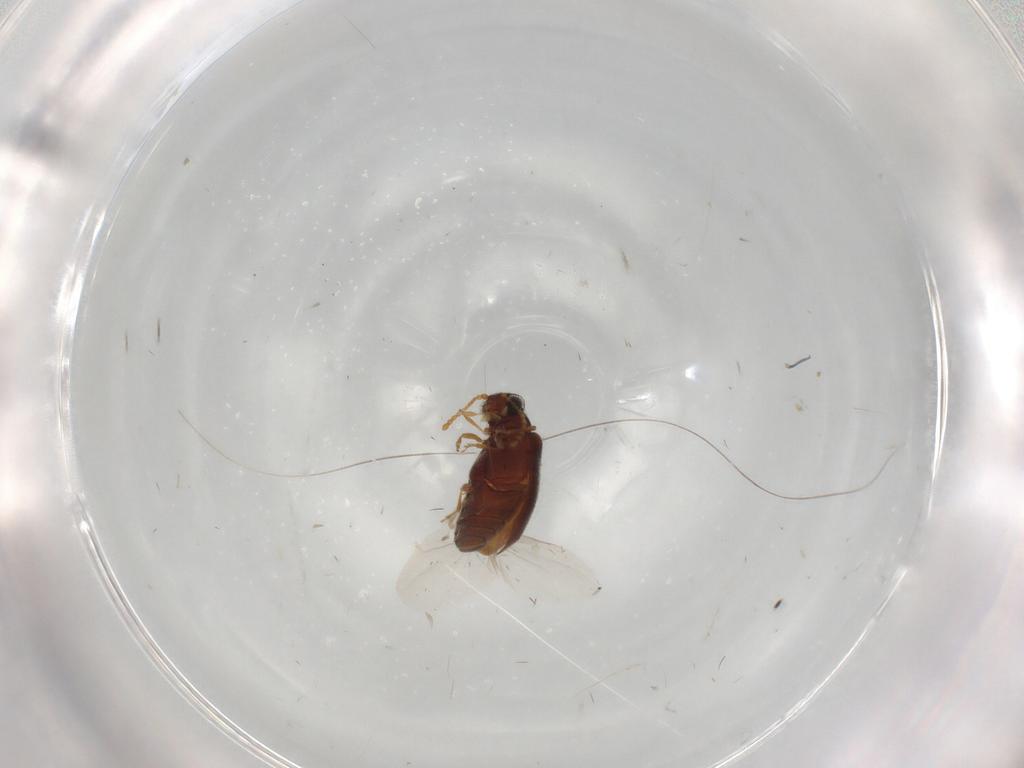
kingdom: Animalia
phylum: Arthropoda
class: Insecta
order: Coleoptera
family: Aderidae
